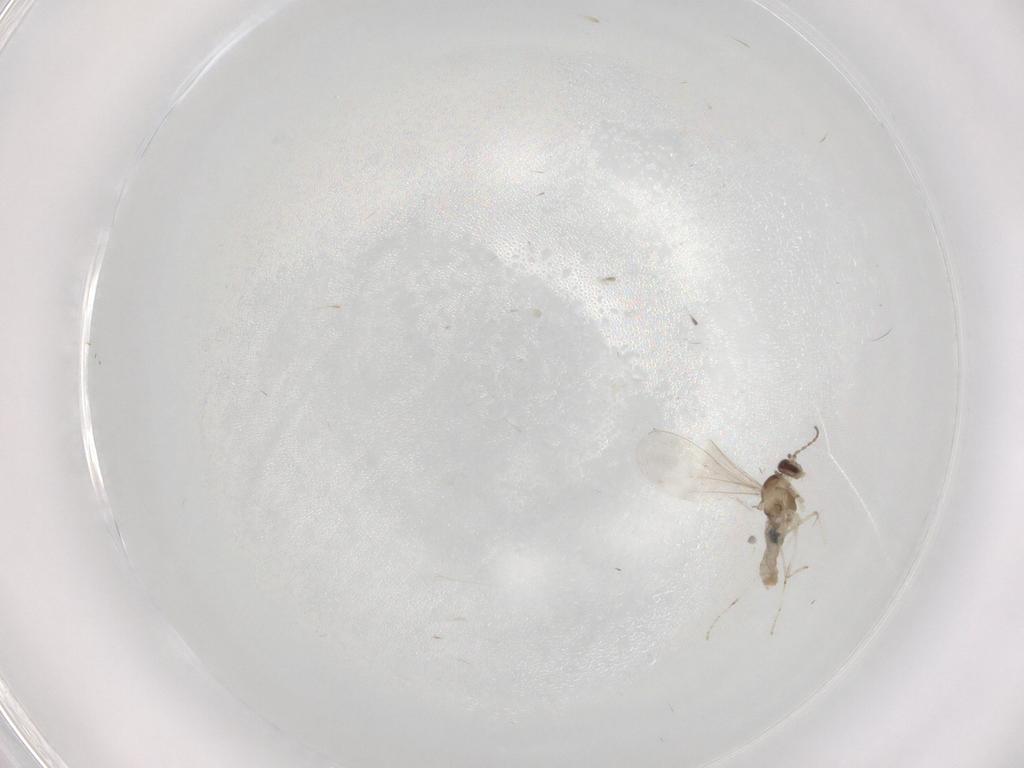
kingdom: Animalia
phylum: Arthropoda
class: Insecta
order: Diptera
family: Cecidomyiidae
